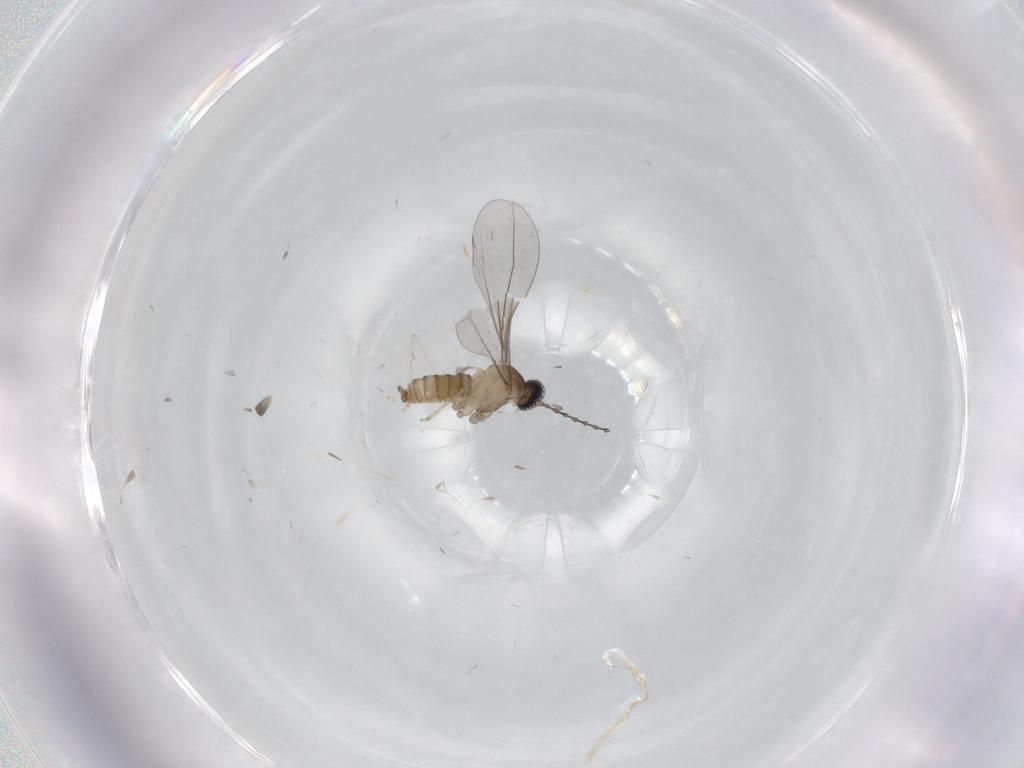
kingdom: Animalia
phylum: Arthropoda
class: Insecta
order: Diptera
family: Cecidomyiidae
